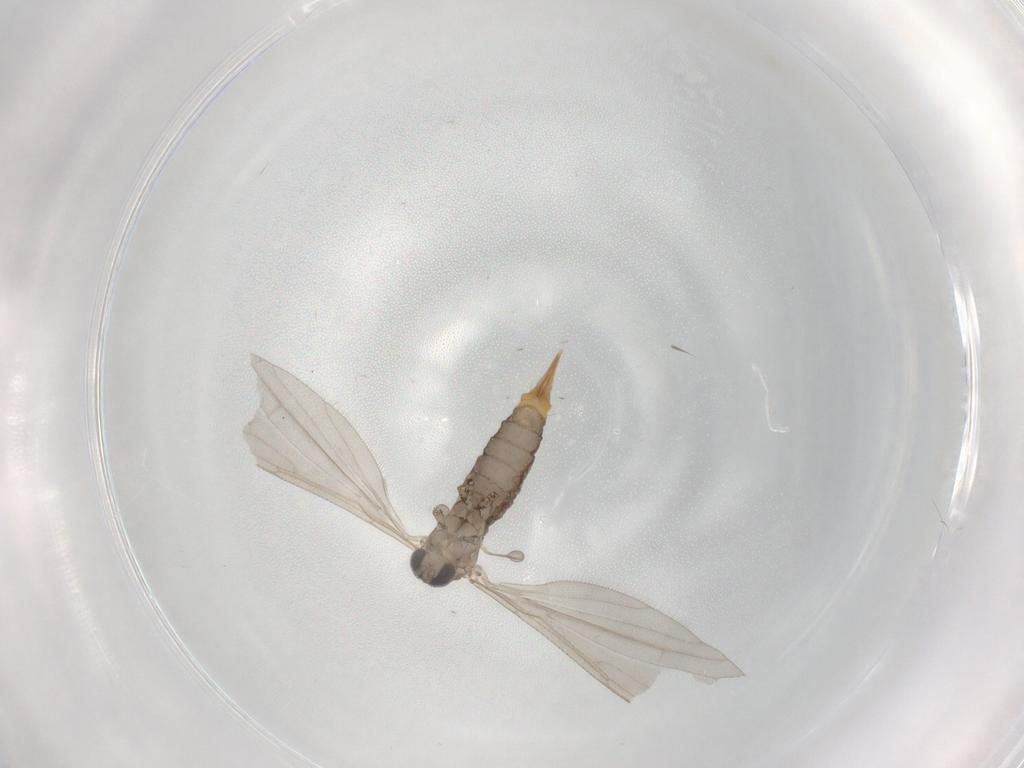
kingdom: Animalia
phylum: Arthropoda
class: Insecta
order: Diptera
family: Limoniidae
